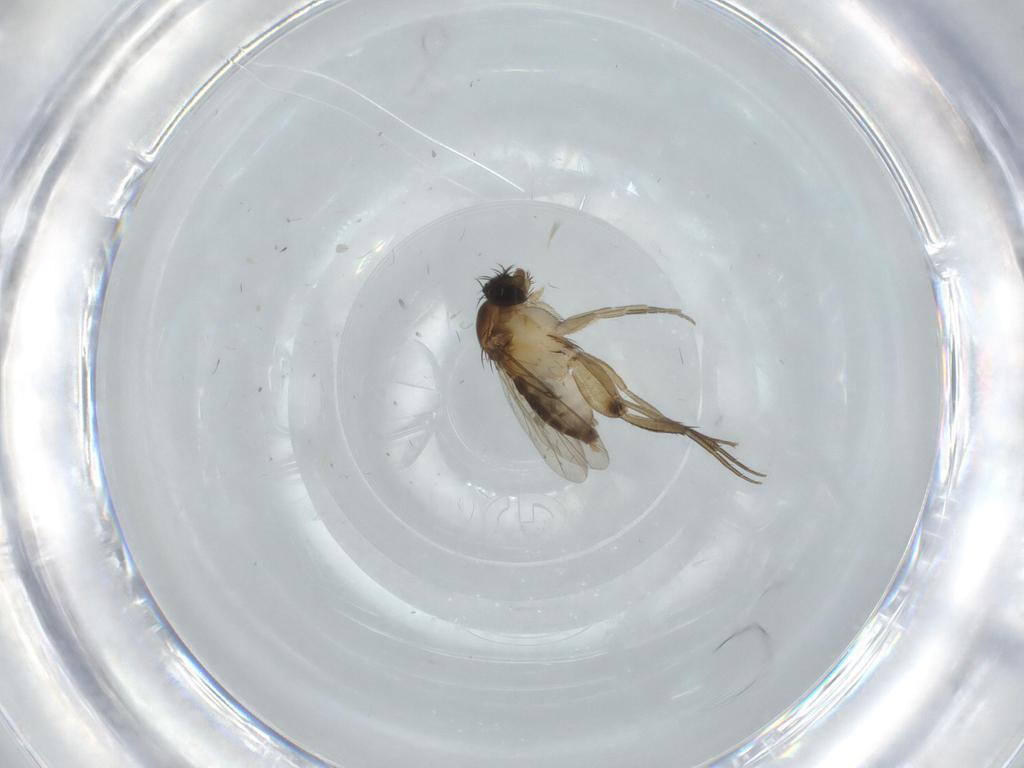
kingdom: Animalia
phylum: Arthropoda
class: Insecta
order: Diptera
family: Phoridae
